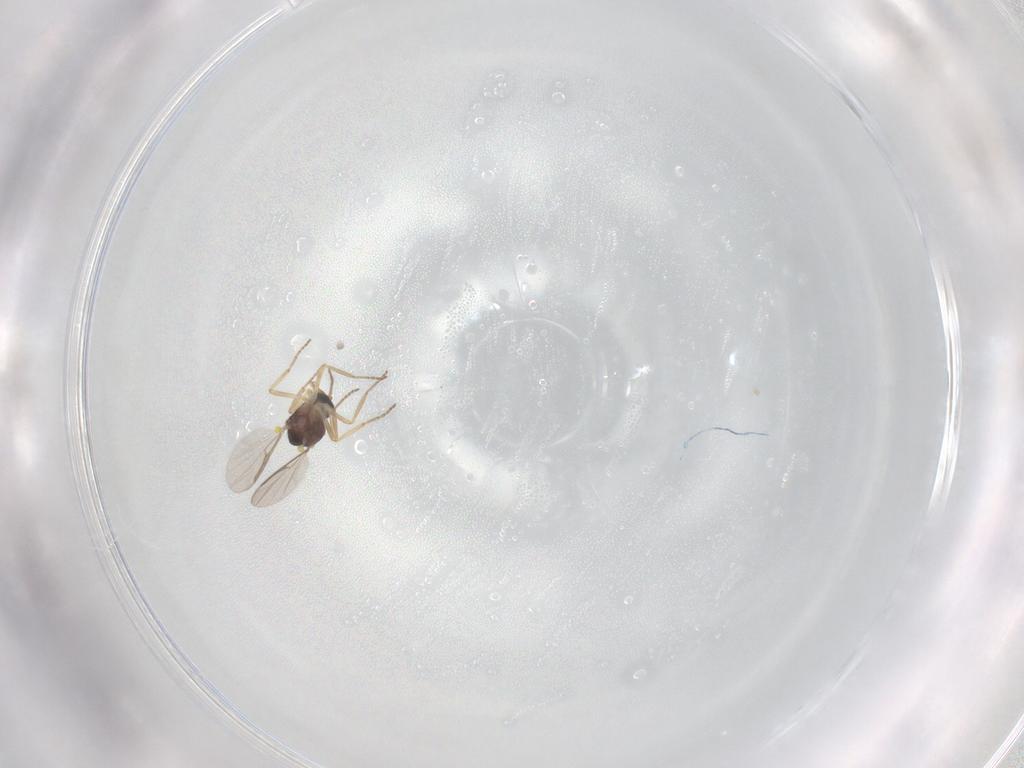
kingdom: Animalia
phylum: Arthropoda
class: Insecta
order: Diptera
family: Ceratopogonidae
